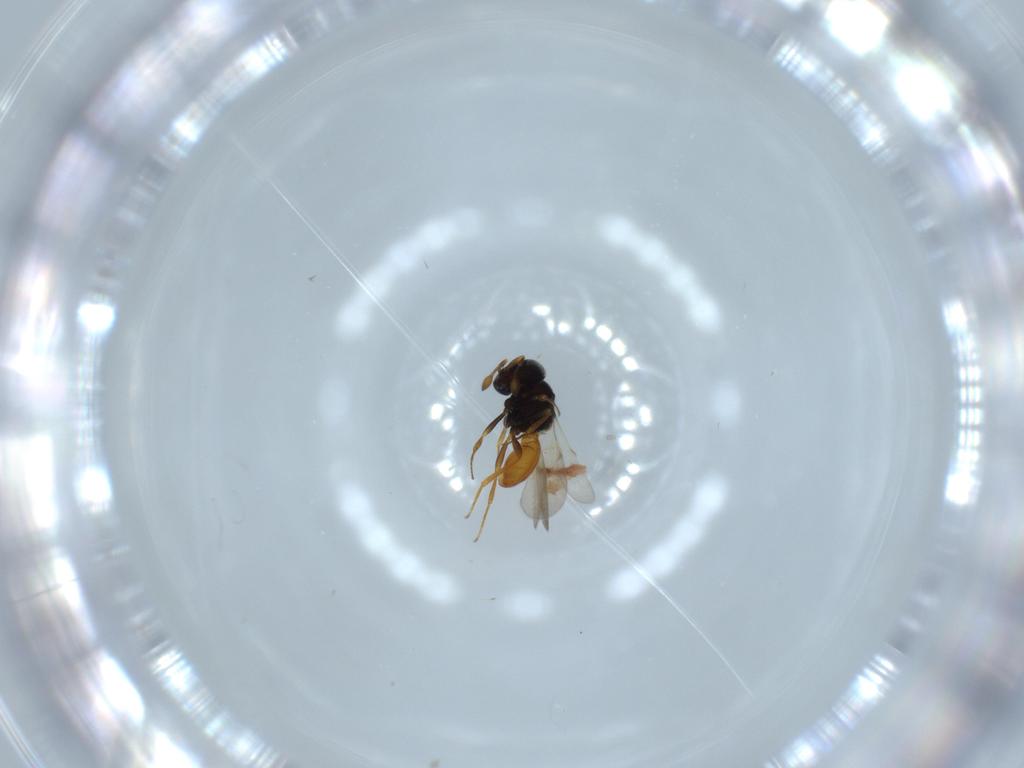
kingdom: Animalia
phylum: Arthropoda
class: Insecta
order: Hymenoptera
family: Scelionidae
